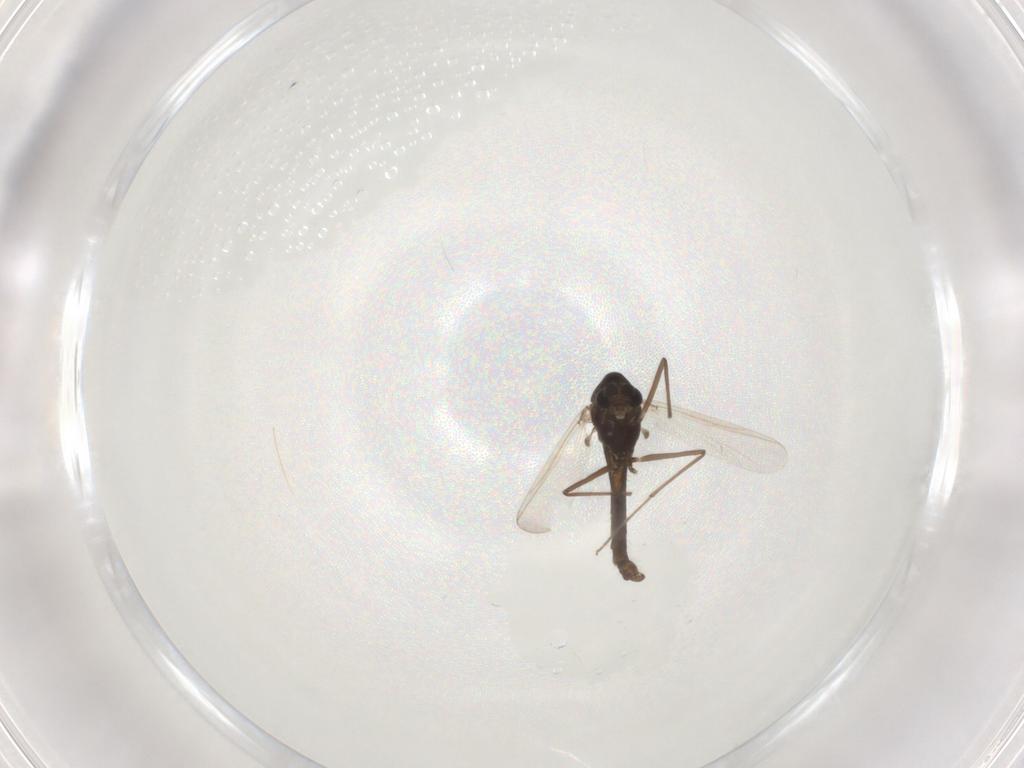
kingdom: Animalia
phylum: Arthropoda
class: Insecta
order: Diptera
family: Chironomidae
